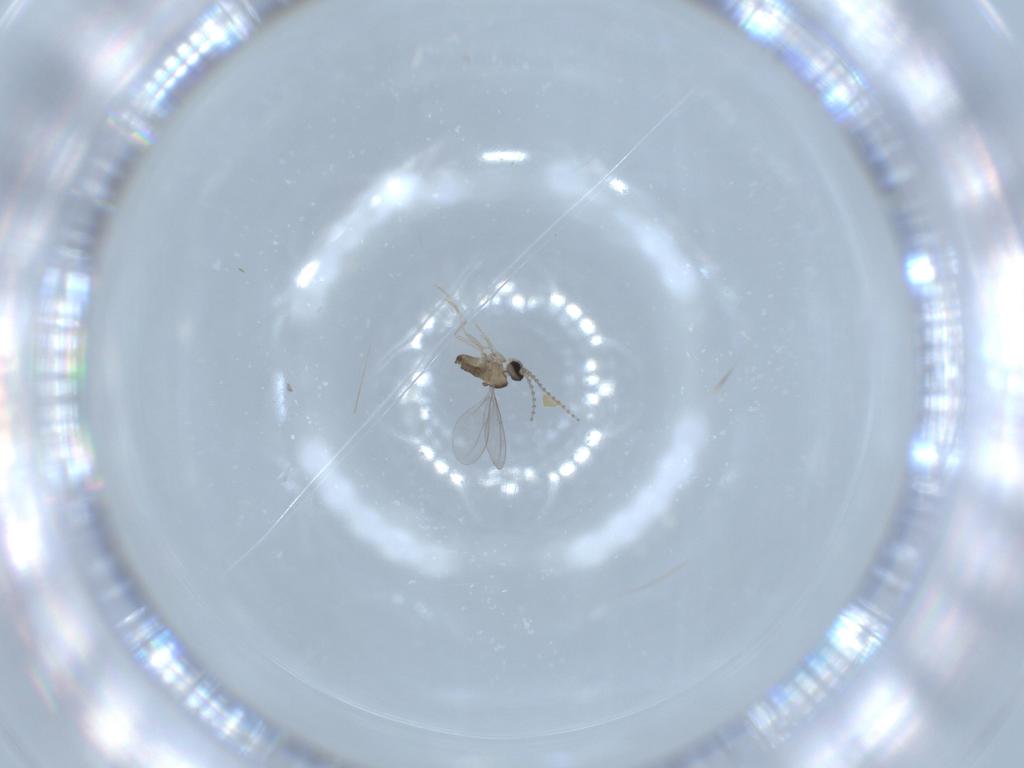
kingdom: Animalia
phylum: Arthropoda
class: Insecta
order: Diptera
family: Cecidomyiidae
